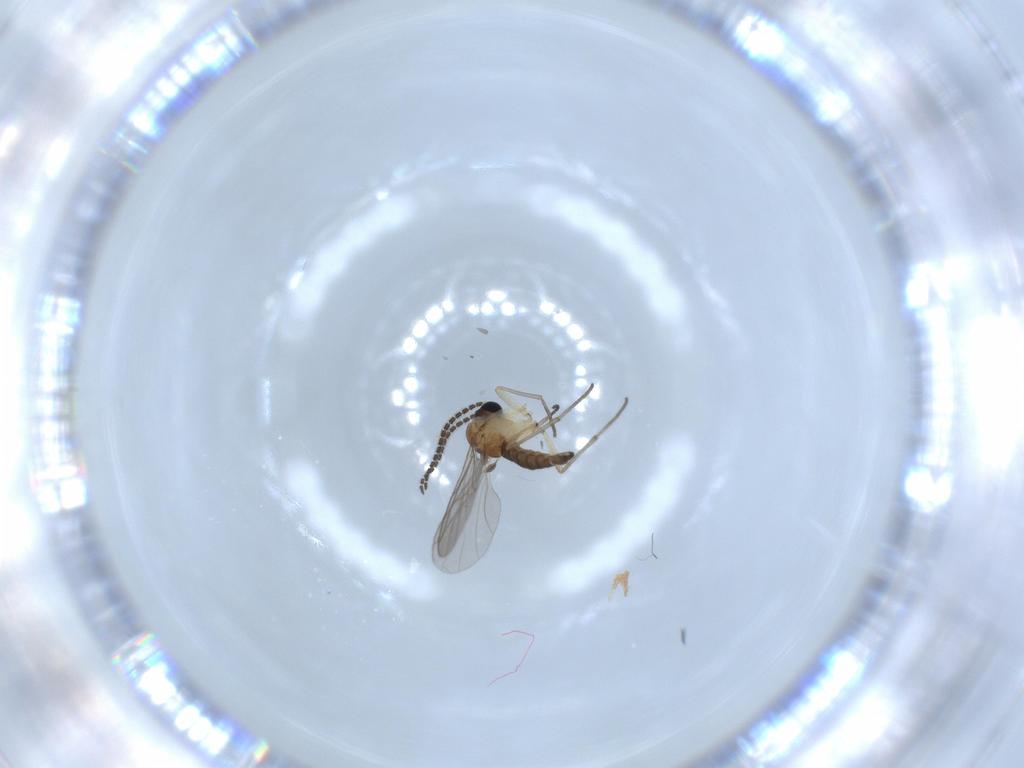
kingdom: Animalia
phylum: Arthropoda
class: Insecta
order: Diptera
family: Sciaridae
